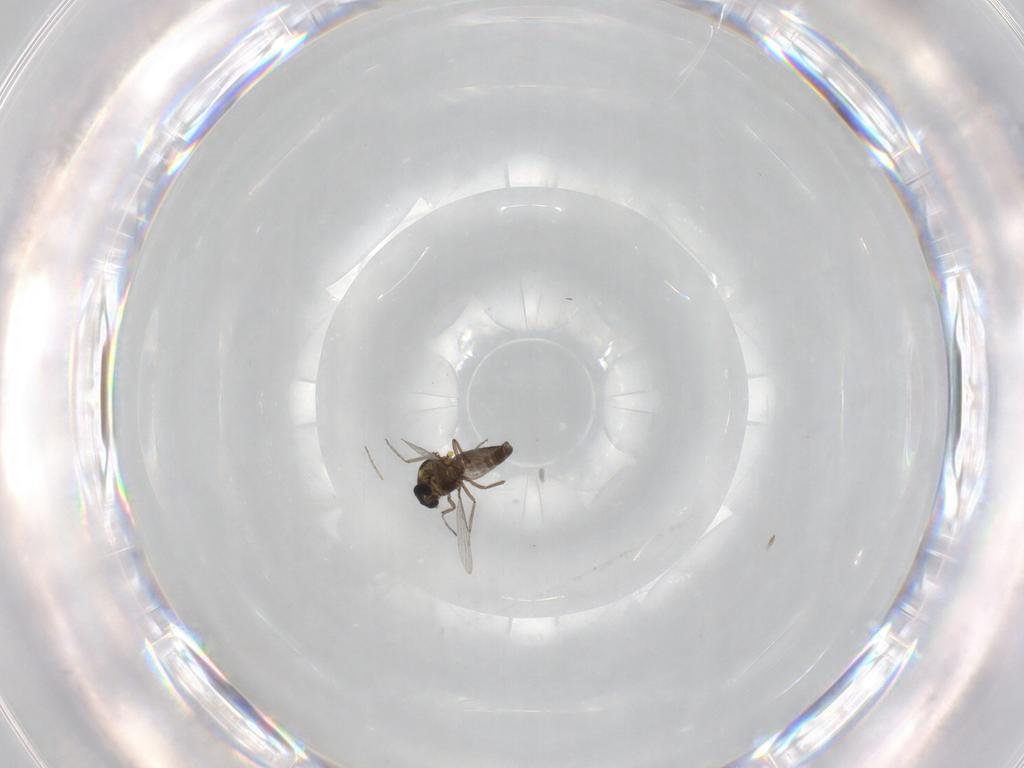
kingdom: Animalia
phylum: Arthropoda
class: Insecta
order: Diptera
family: Ceratopogonidae
